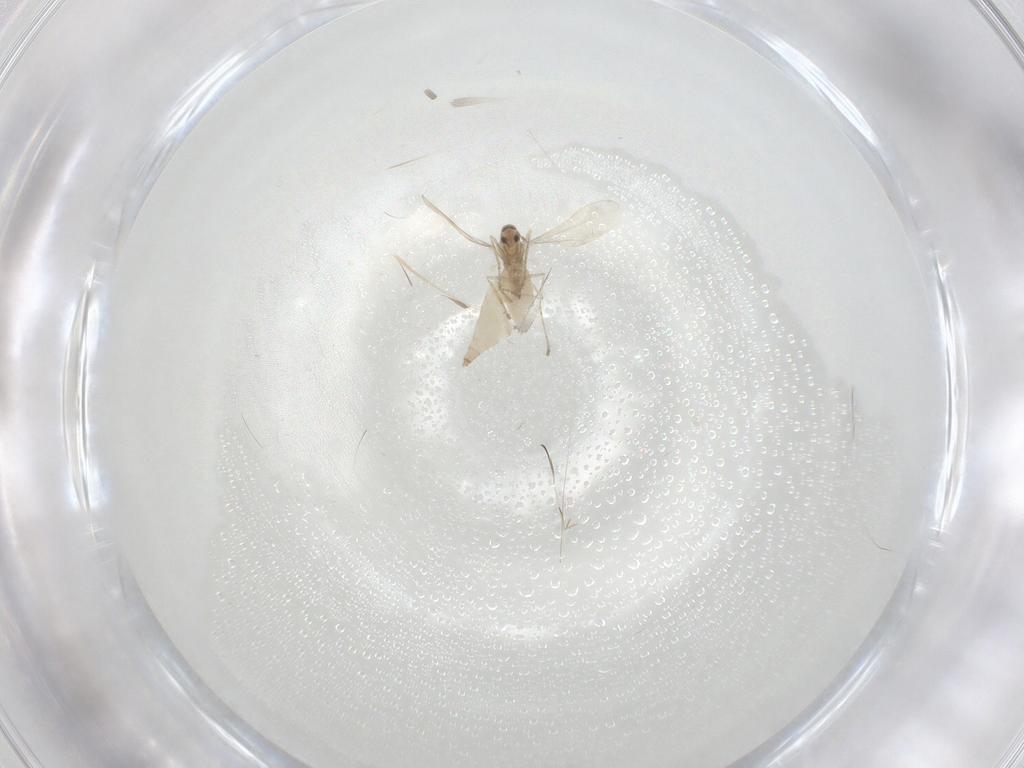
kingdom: Animalia
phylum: Arthropoda
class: Insecta
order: Diptera
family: Cecidomyiidae
